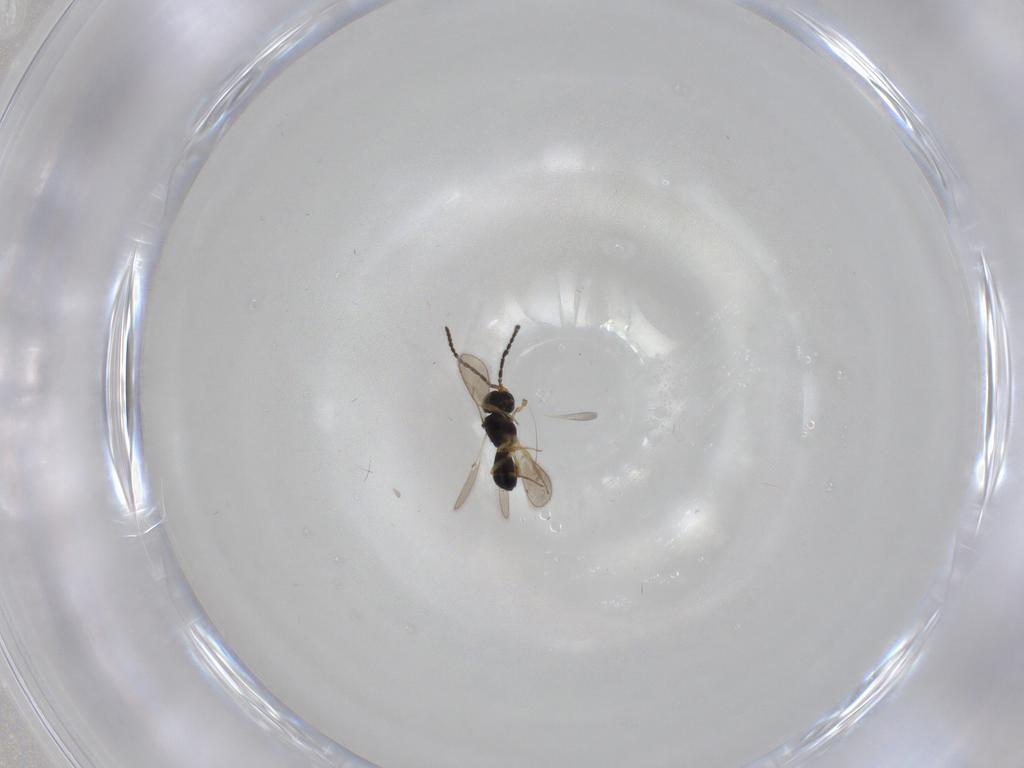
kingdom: Animalia
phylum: Arthropoda
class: Insecta
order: Hymenoptera
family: Scelionidae
